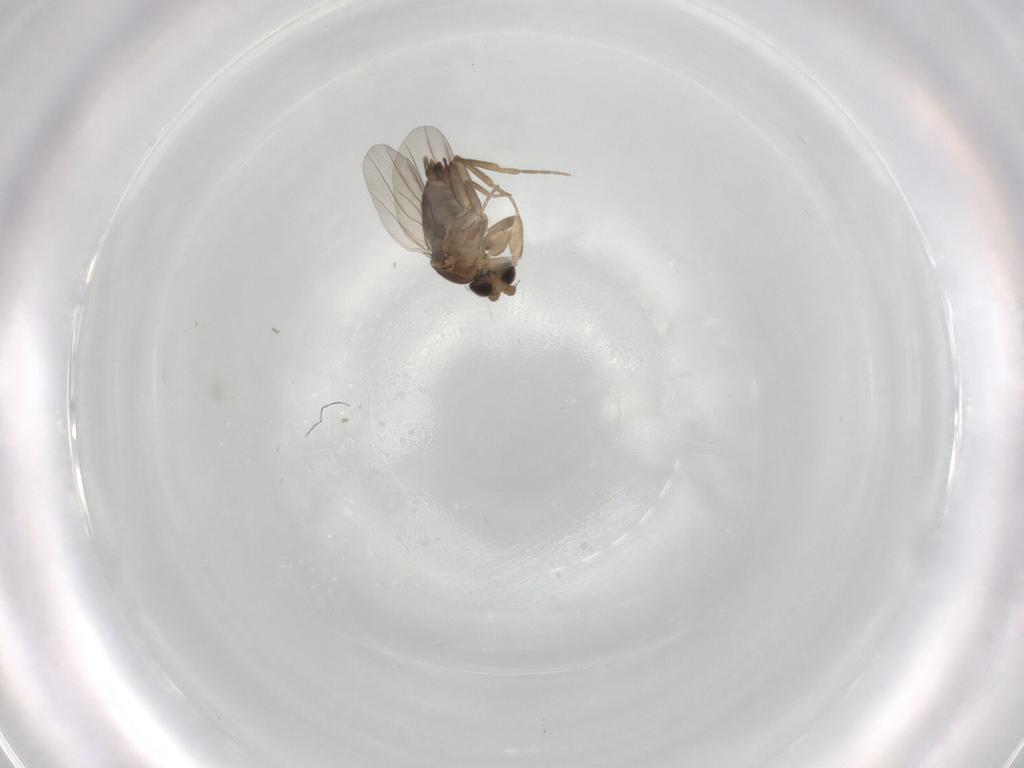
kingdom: Animalia
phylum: Arthropoda
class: Insecta
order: Diptera
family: Phoridae
